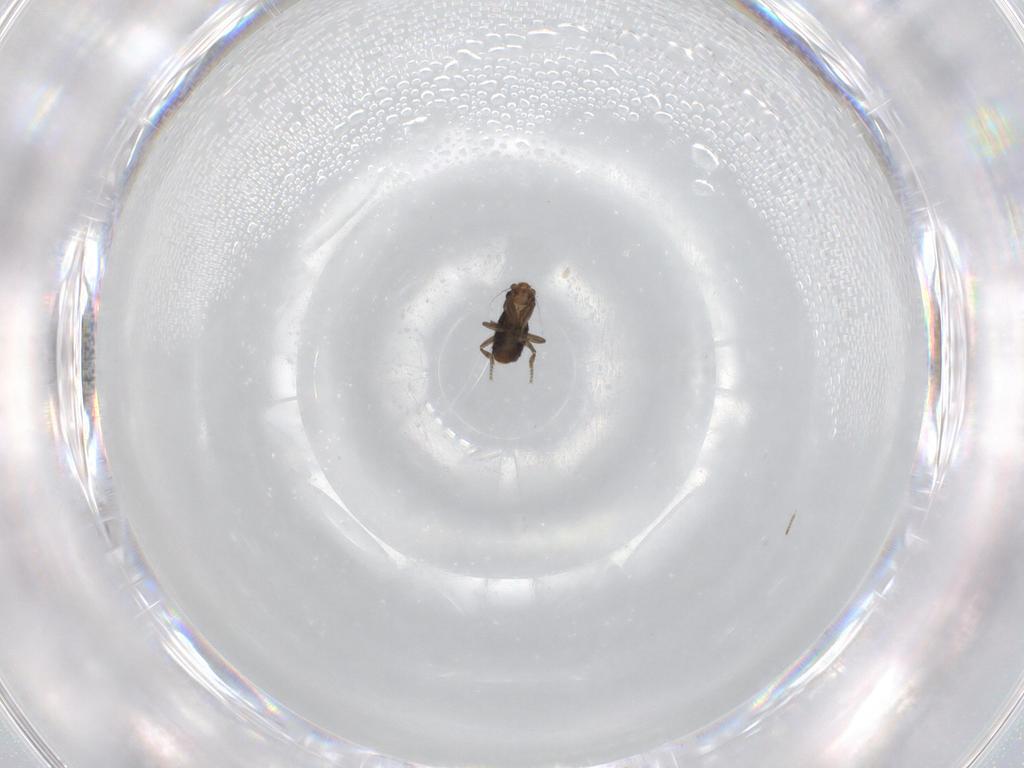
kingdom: Animalia
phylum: Arthropoda
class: Insecta
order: Diptera
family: Phoridae
